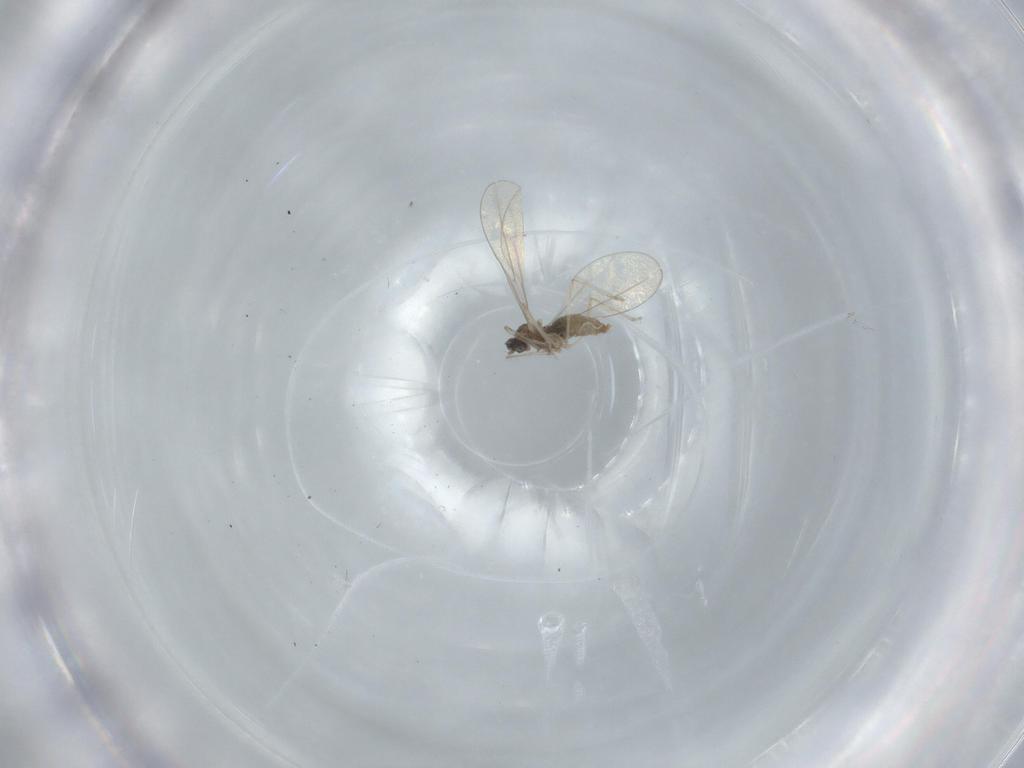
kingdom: Animalia
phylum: Arthropoda
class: Insecta
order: Diptera
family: Cecidomyiidae
